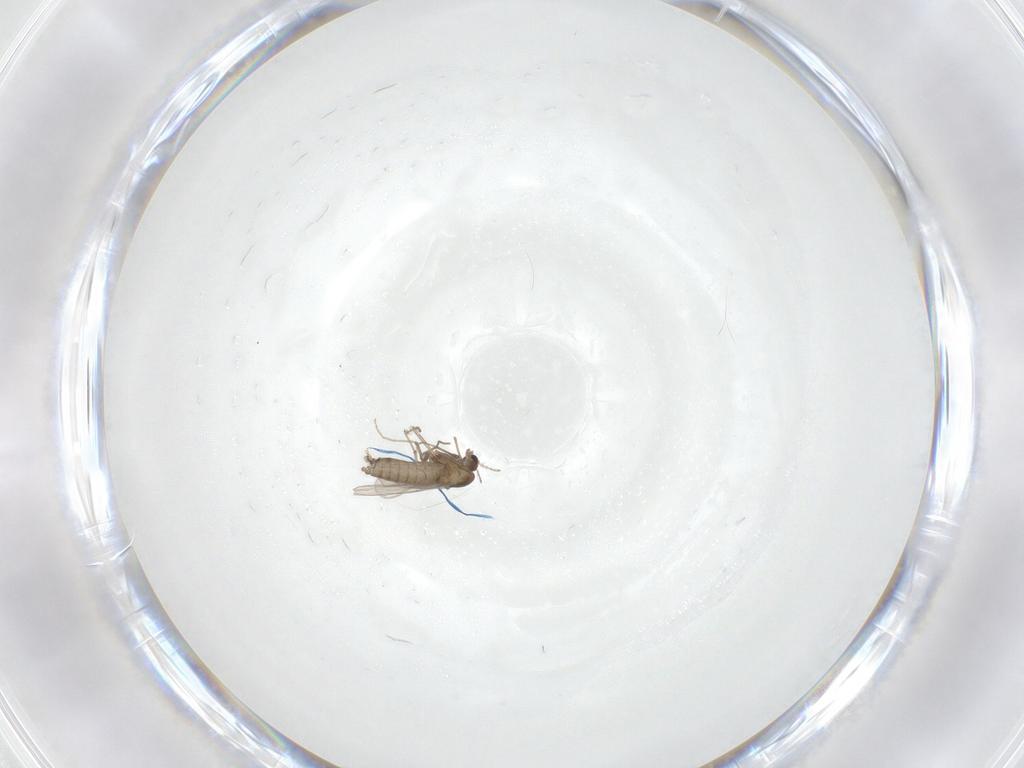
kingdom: Animalia
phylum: Arthropoda
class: Insecta
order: Diptera
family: Chironomidae
